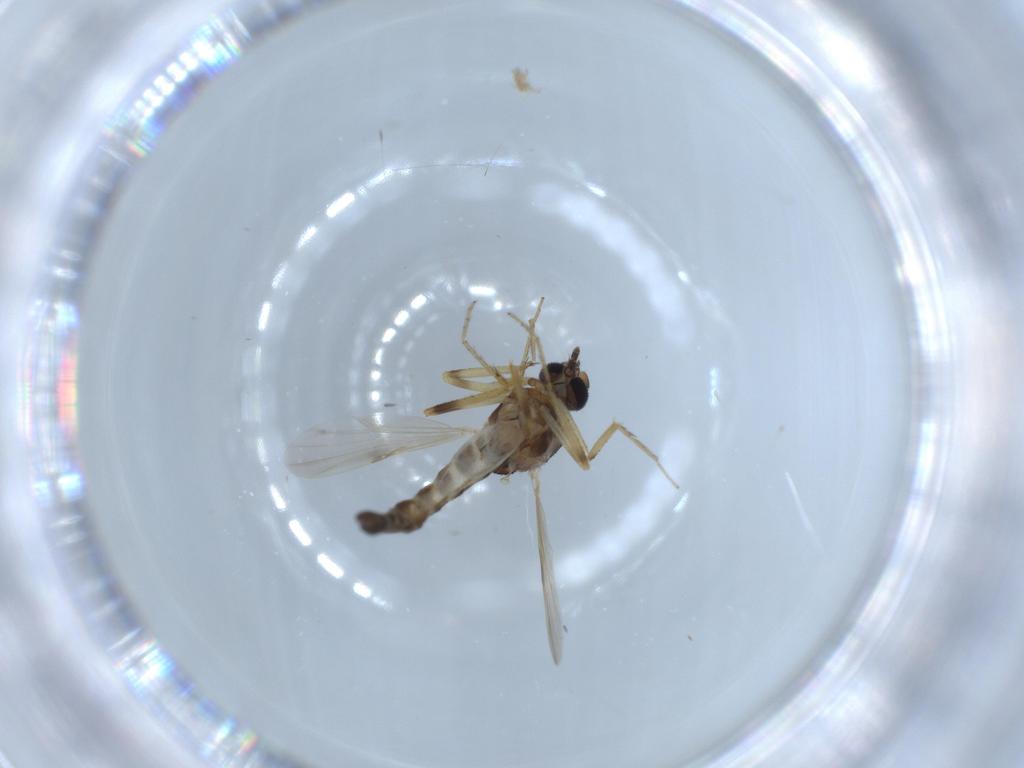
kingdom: Animalia
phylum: Arthropoda
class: Insecta
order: Diptera
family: Ceratopogonidae
